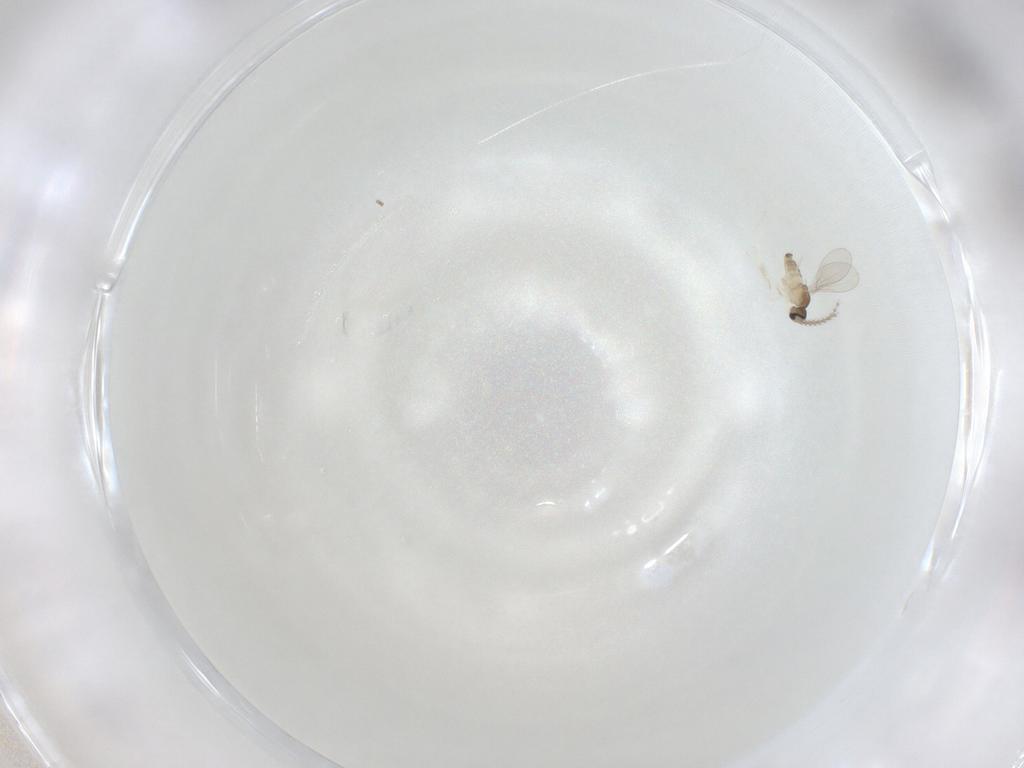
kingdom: Animalia
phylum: Arthropoda
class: Insecta
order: Diptera
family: Cecidomyiidae
